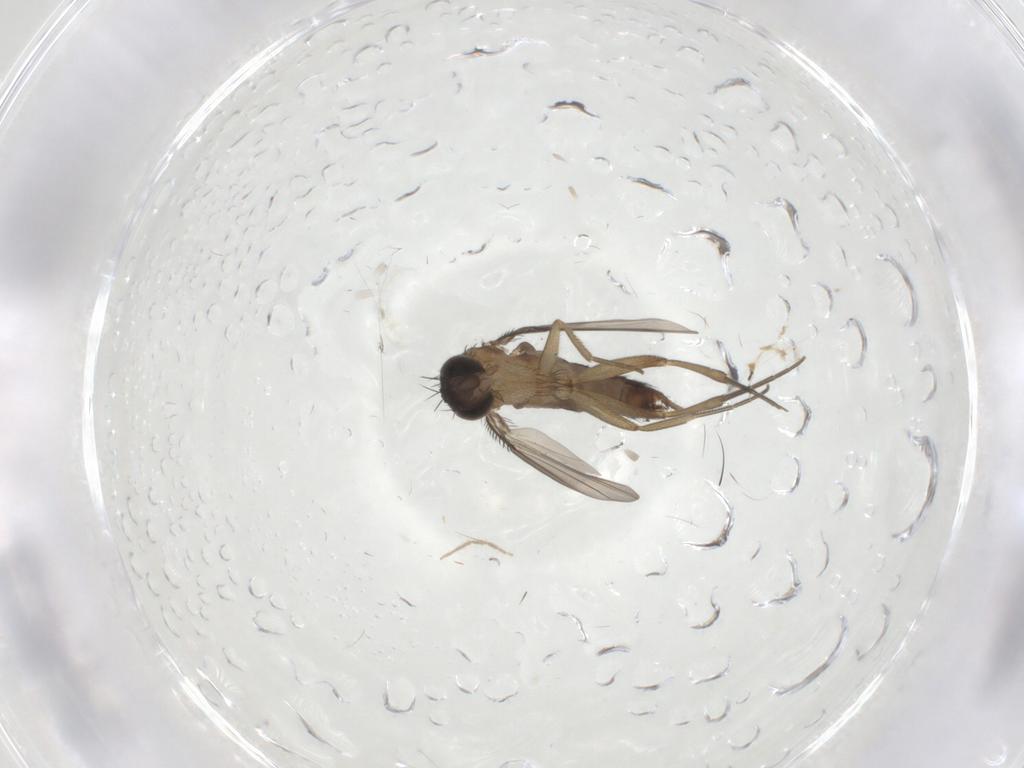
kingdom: Animalia
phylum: Arthropoda
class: Insecta
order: Diptera
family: Phoridae
